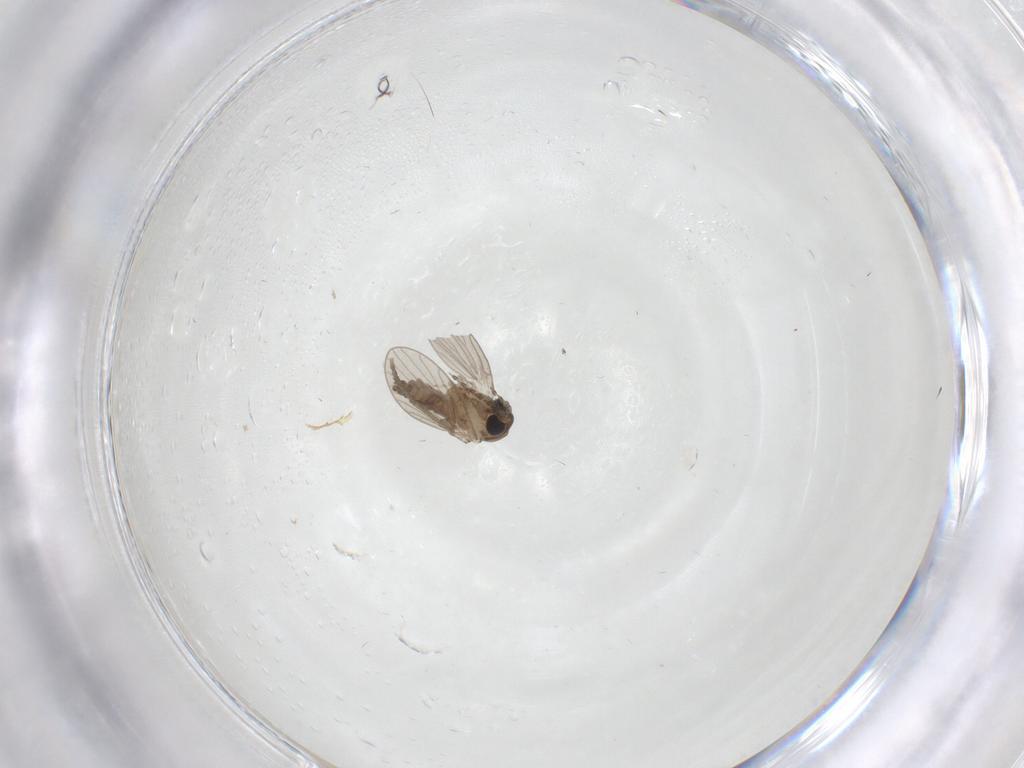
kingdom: Animalia
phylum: Arthropoda
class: Insecta
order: Diptera
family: Psychodidae
